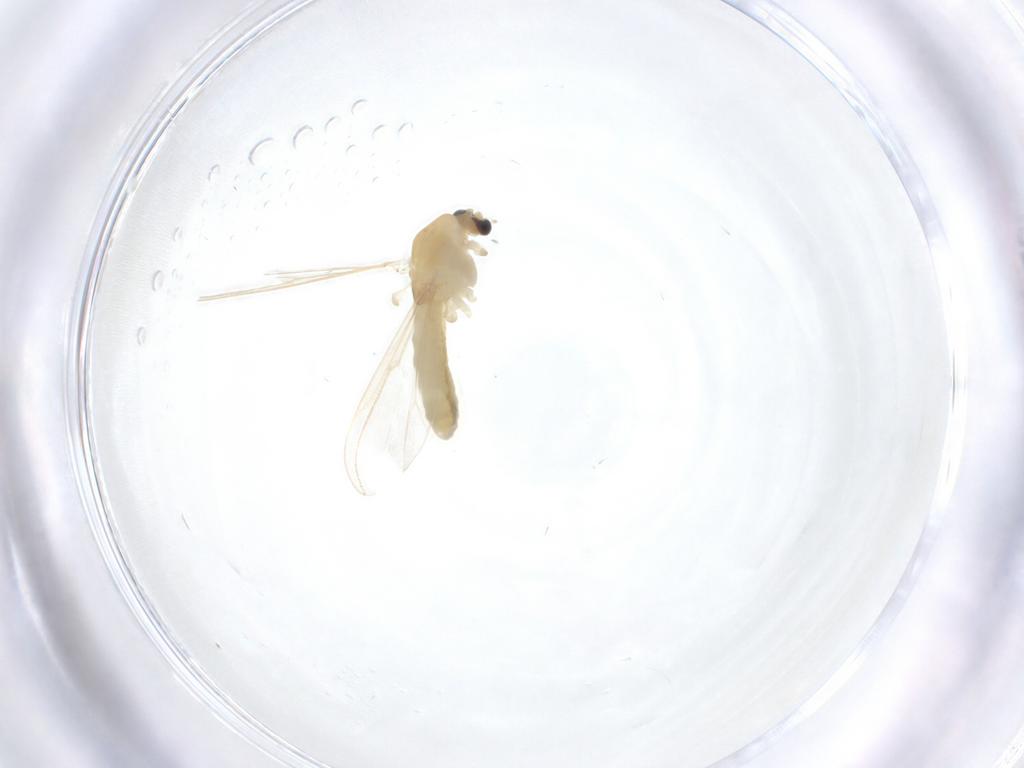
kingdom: Animalia
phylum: Arthropoda
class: Insecta
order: Diptera
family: Chironomidae
